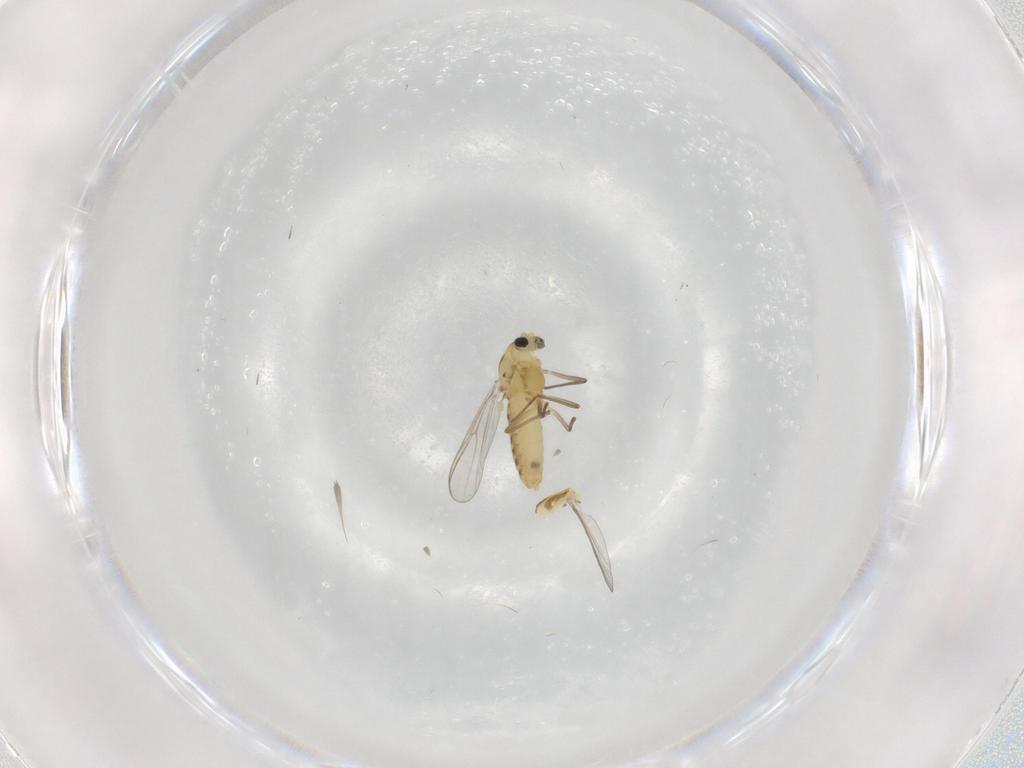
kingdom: Animalia
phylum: Arthropoda
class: Insecta
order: Diptera
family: Chironomidae
